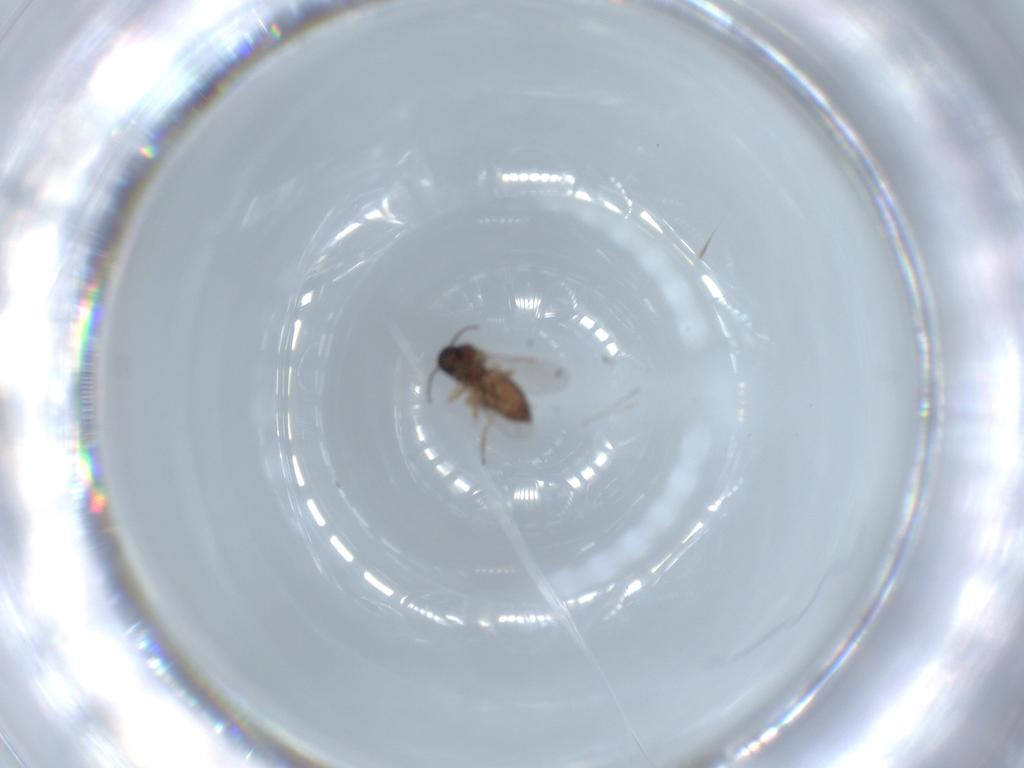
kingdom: Animalia
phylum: Arthropoda
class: Insecta
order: Diptera
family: Ceratopogonidae
